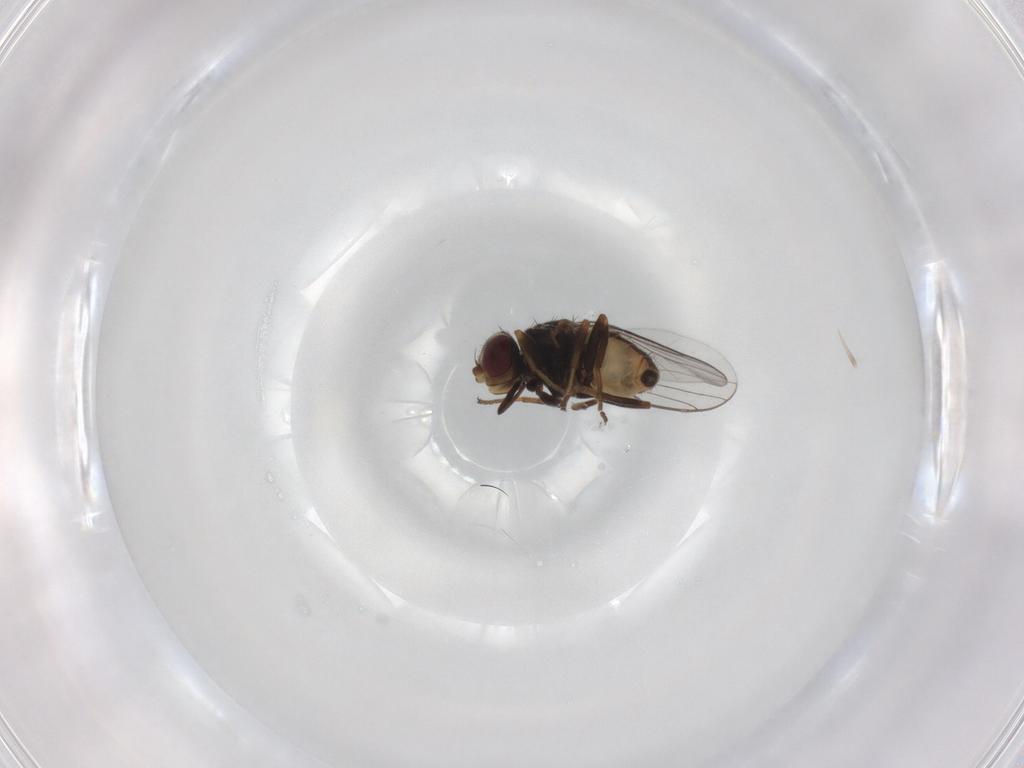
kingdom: Animalia
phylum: Arthropoda
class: Insecta
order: Diptera
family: Chloropidae
